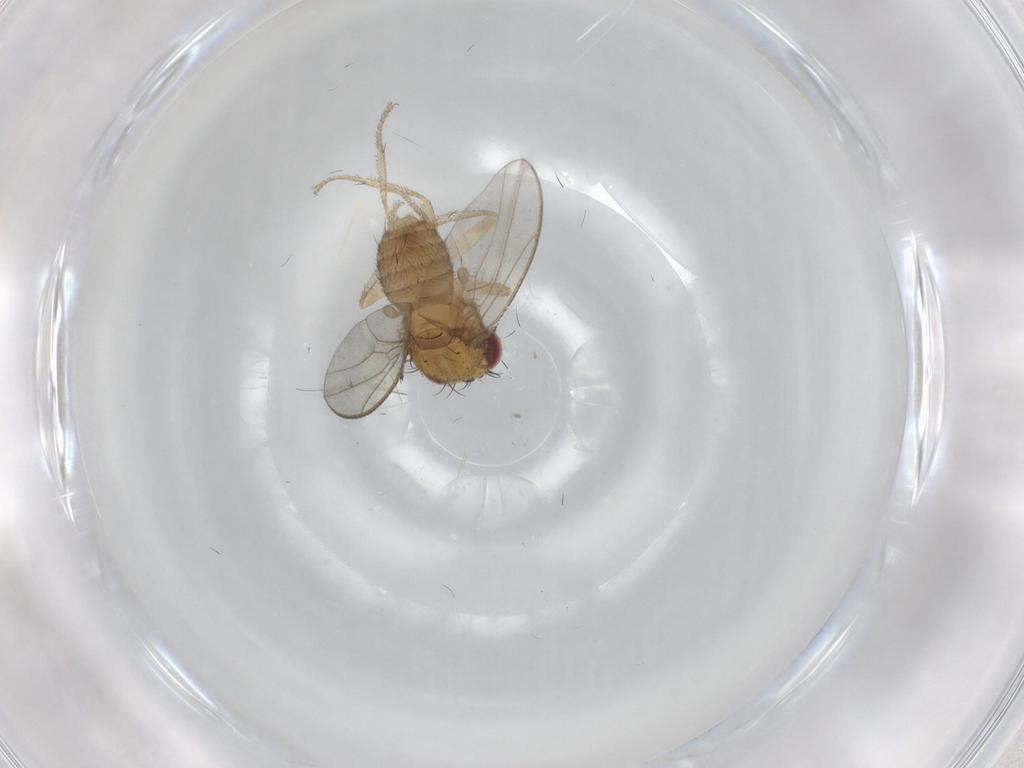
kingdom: Animalia
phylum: Arthropoda
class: Insecta
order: Diptera
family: Drosophilidae
